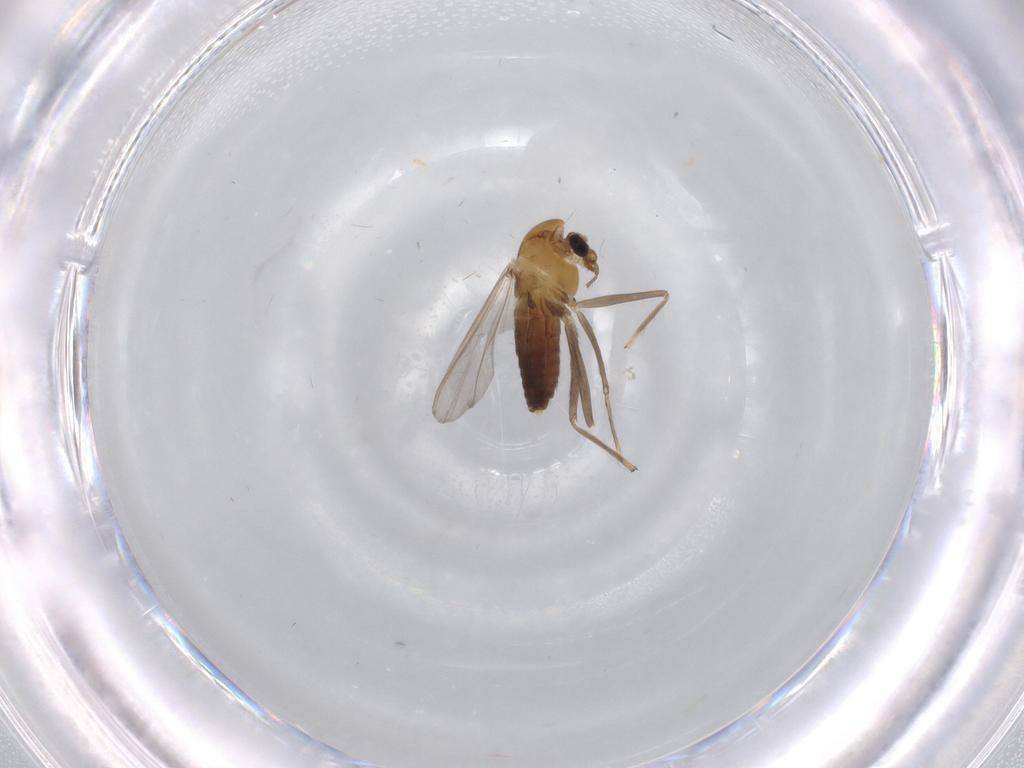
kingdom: Animalia
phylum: Arthropoda
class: Insecta
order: Diptera
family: Chironomidae
